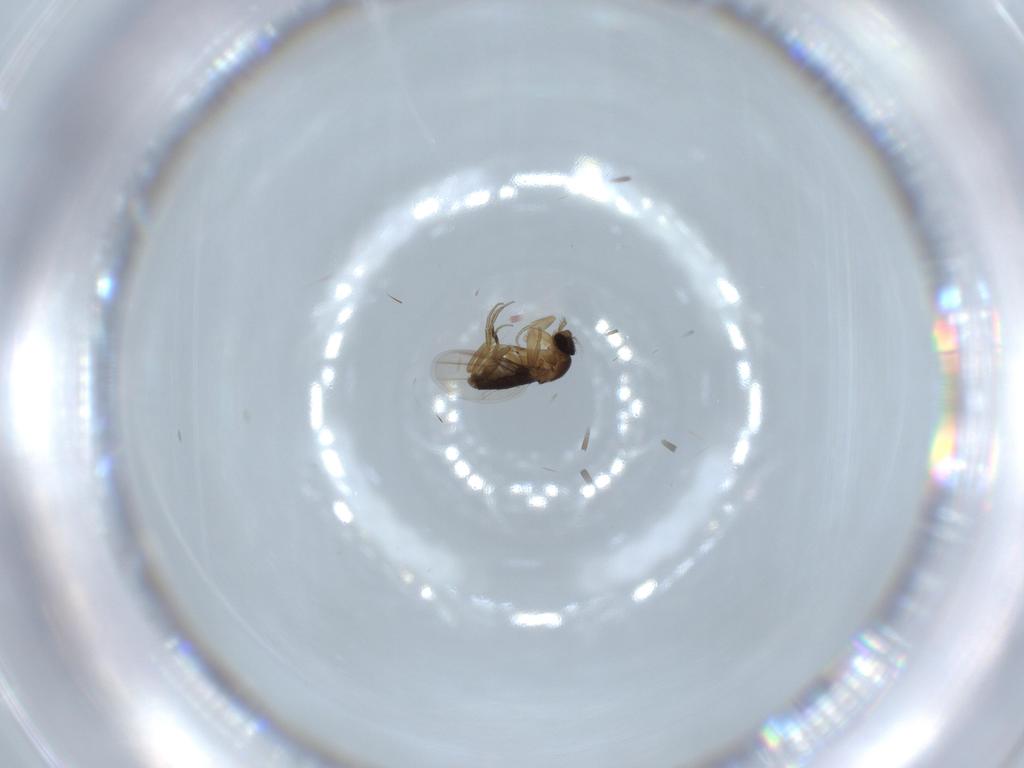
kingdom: Animalia
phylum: Arthropoda
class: Insecta
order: Diptera
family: Phoridae
